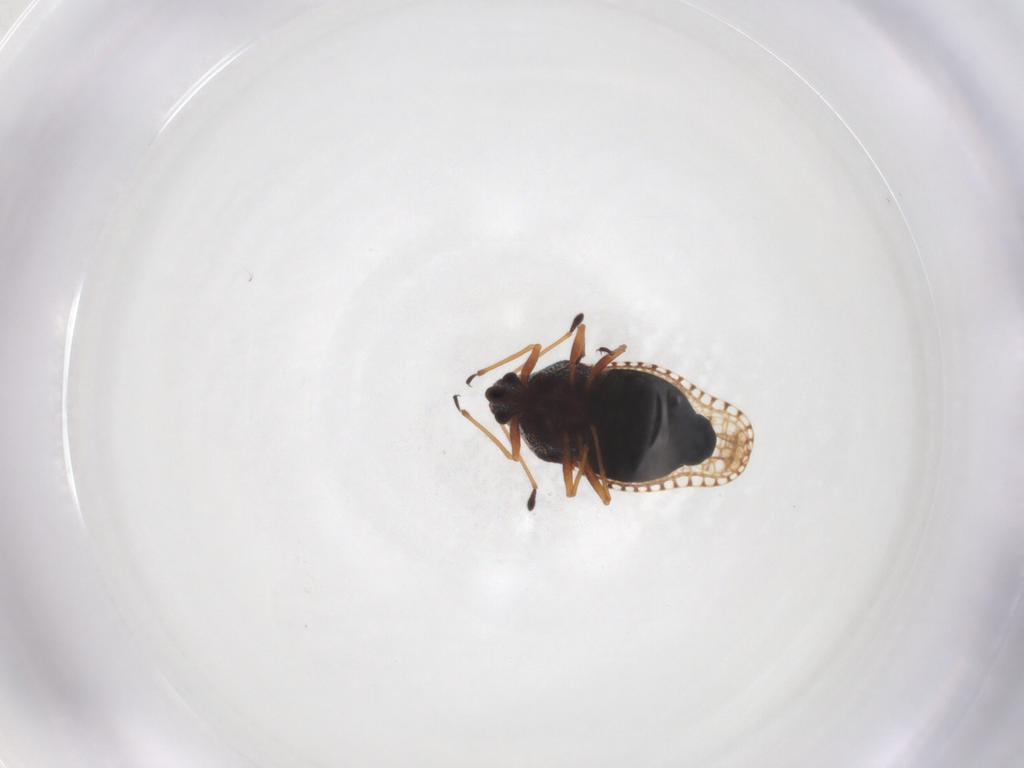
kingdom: Animalia
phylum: Arthropoda
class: Insecta
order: Hemiptera
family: Tingidae
